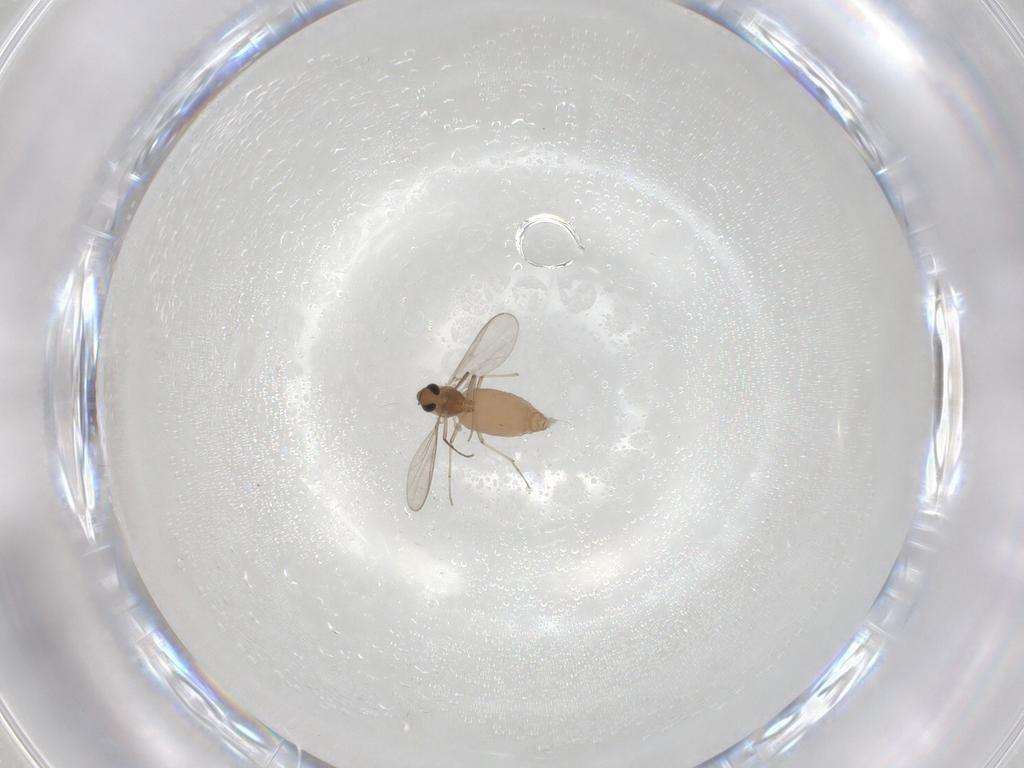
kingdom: Animalia
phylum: Arthropoda
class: Insecta
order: Diptera
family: Chironomidae
